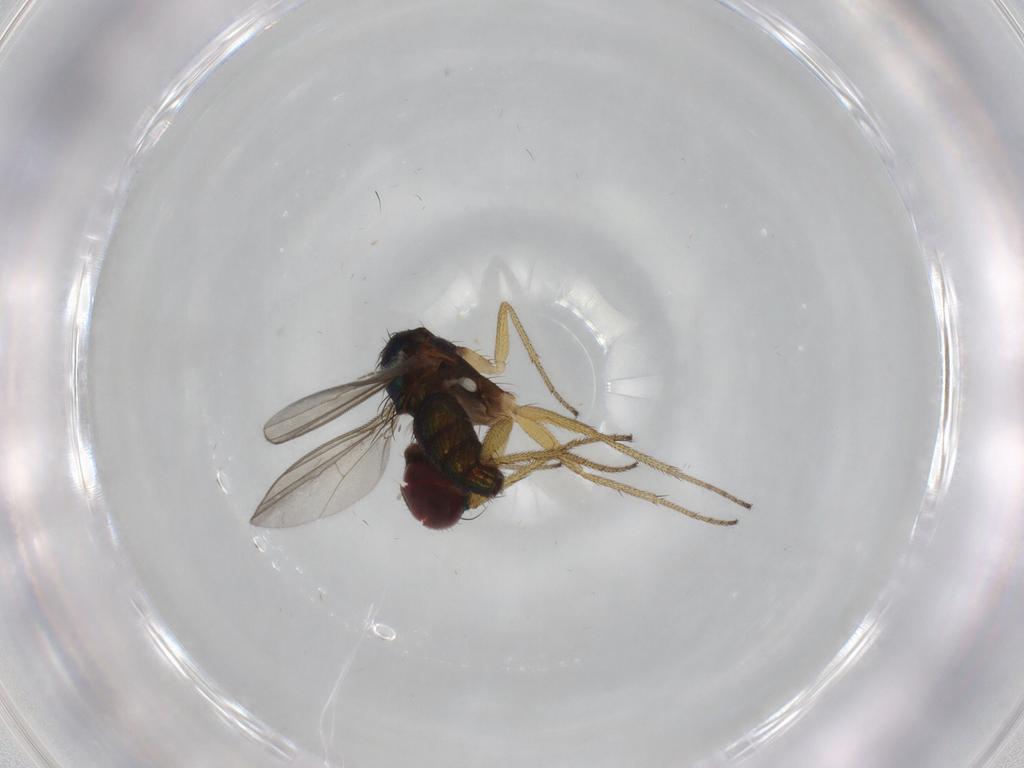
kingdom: Animalia
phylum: Arthropoda
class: Insecta
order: Diptera
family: Dolichopodidae
